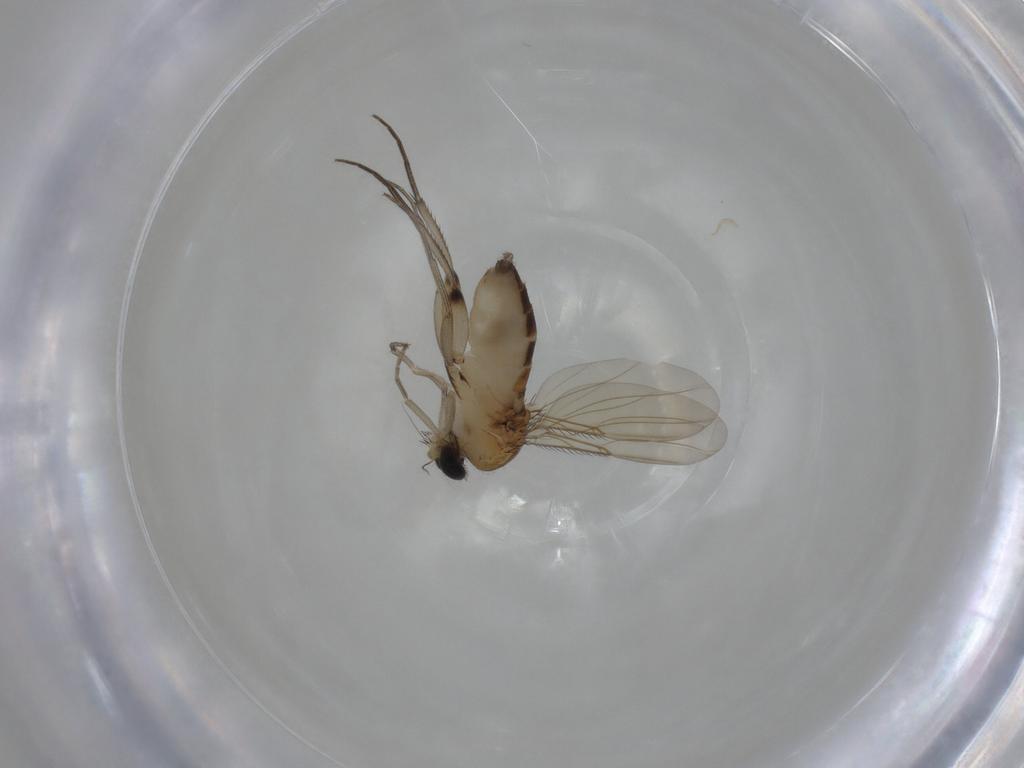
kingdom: Animalia
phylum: Arthropoda
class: Insecta
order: Diptera
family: Phoridae
